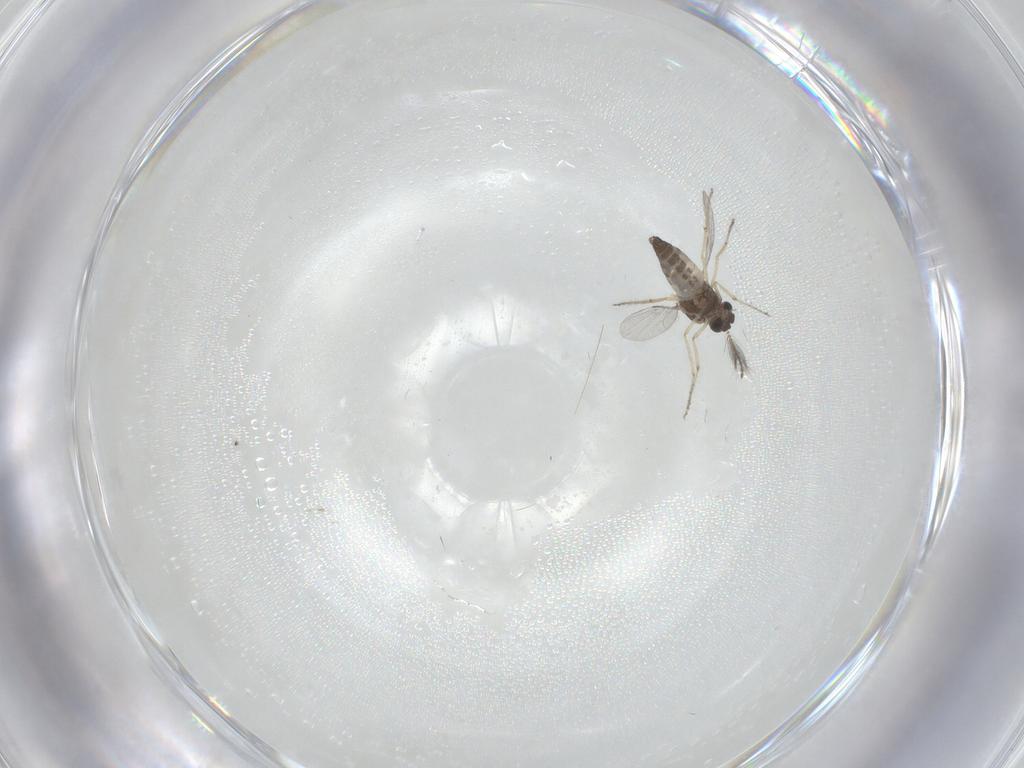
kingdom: Animalia
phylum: Arthropoda
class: Insecta
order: Diptera
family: Ceratopogonidae
